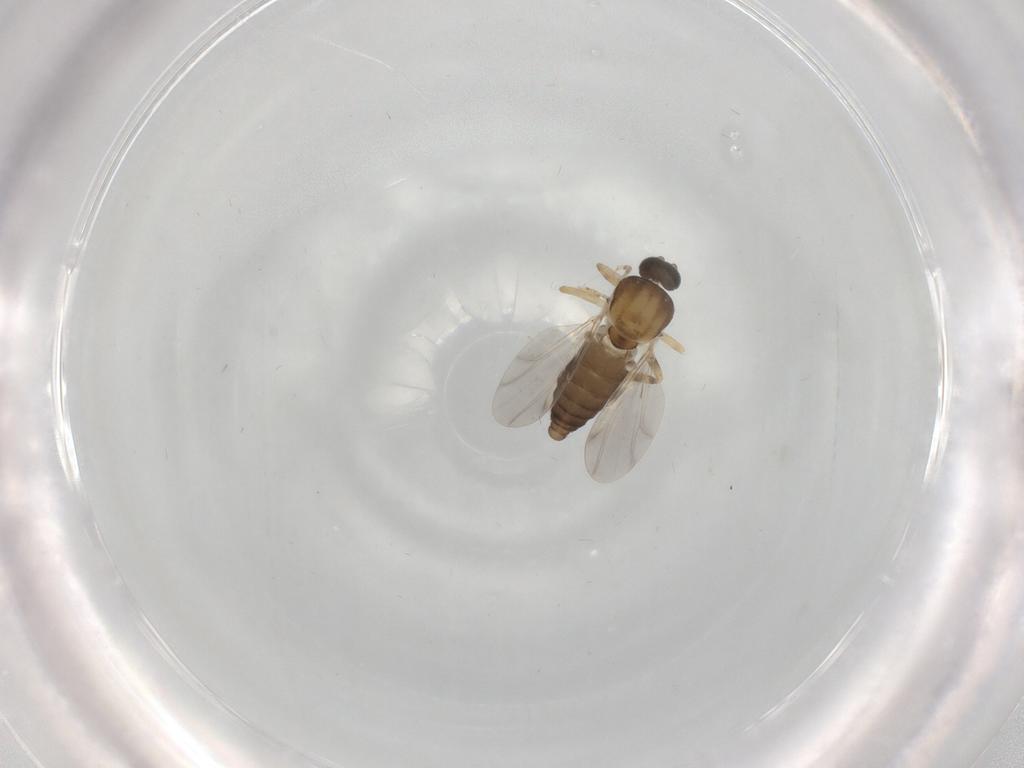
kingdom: Animalia
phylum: Arthropoda
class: Insecta
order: Diptera
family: Ceratopogonidae
